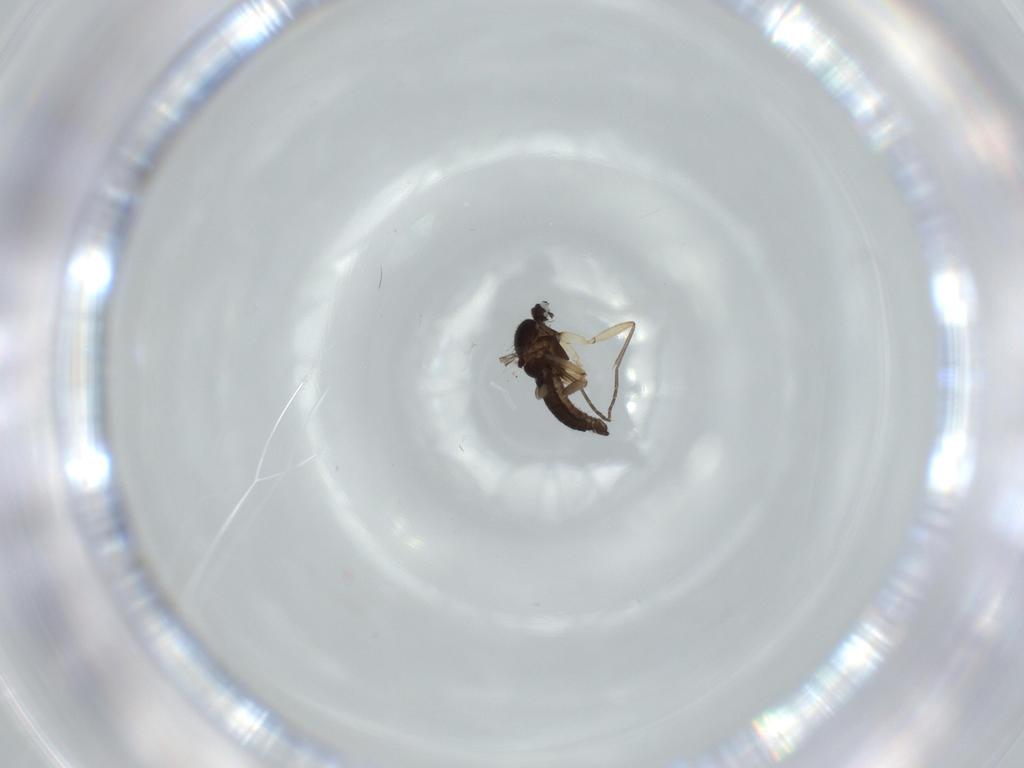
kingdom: Animalia
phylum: Arthropoda
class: Insecta
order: Diptera
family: Sciaridae
